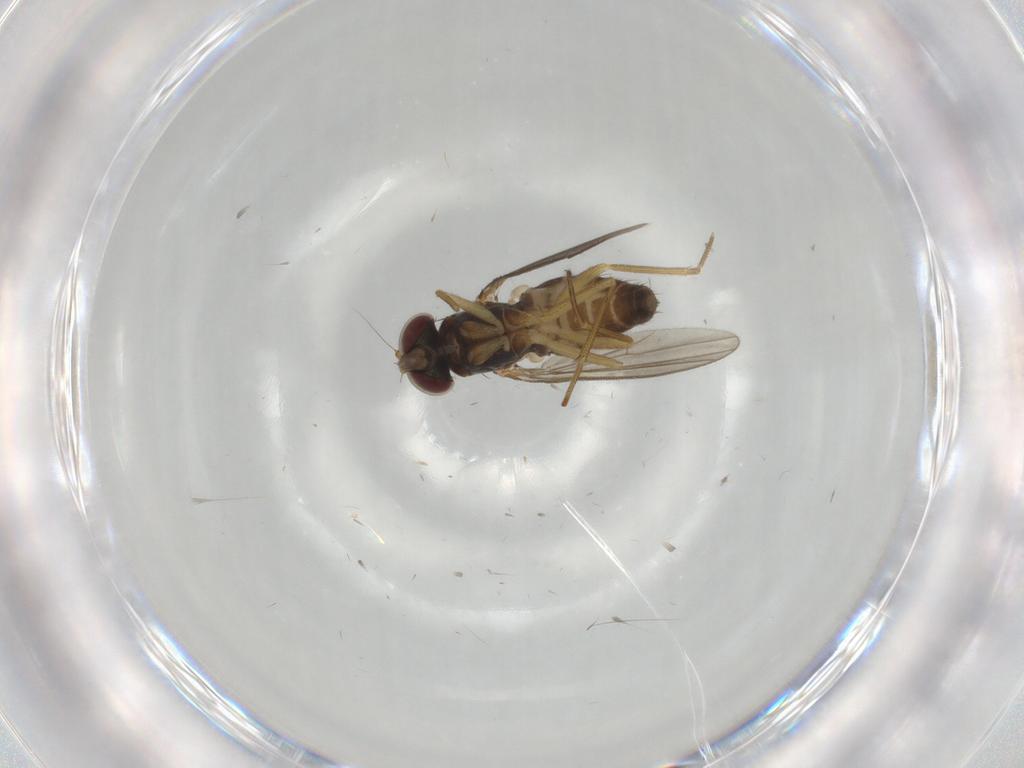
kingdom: Animalia
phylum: Arthropoda
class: Insecta
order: Diptera
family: Dolichopodidae
